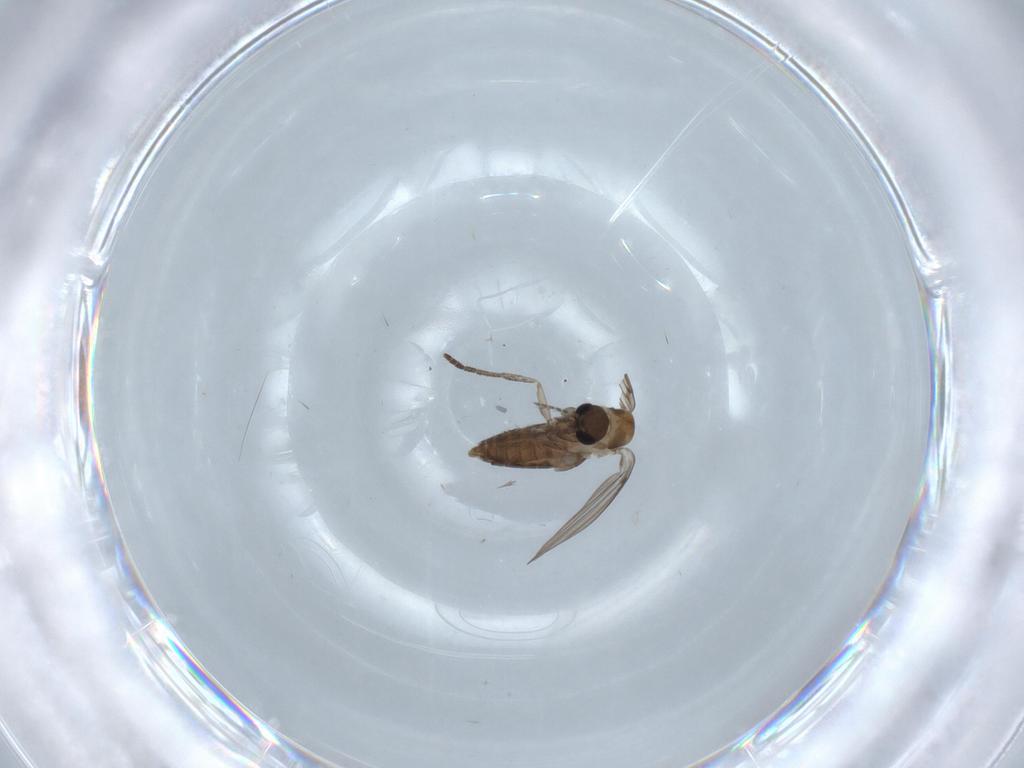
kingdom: Animalia
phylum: Arthropoda
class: Insecta
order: Diptera
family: Psychodidae
